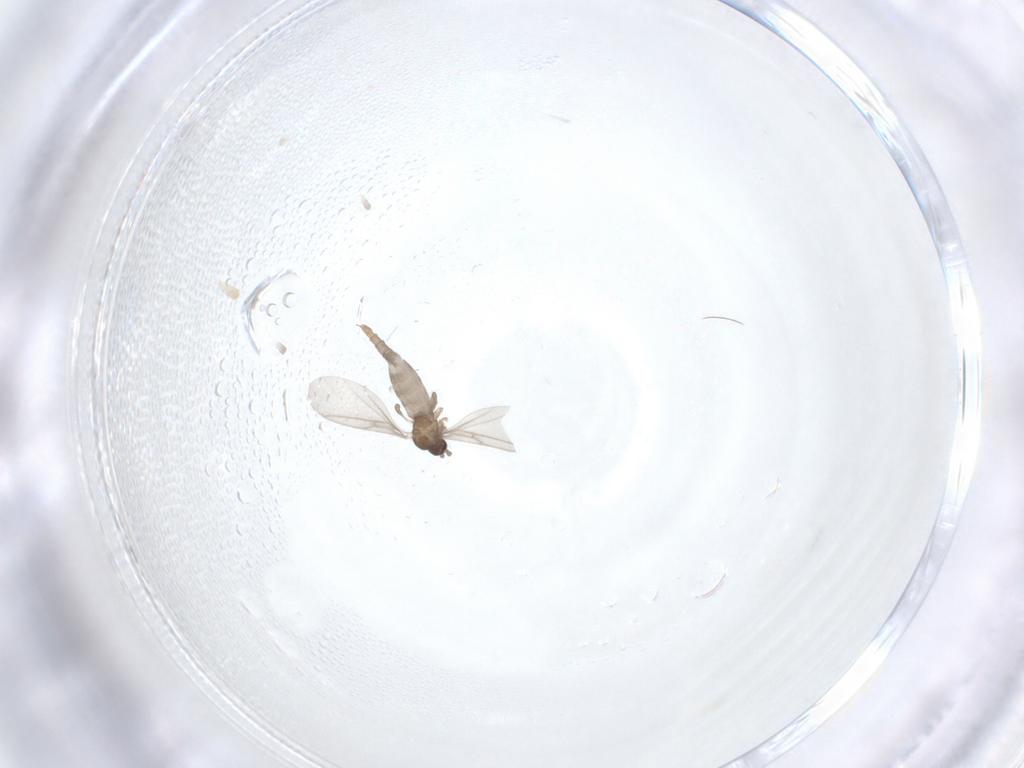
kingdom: Animalia
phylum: Arthropoda
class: Insecta
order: Diptera
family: Sciaridae
